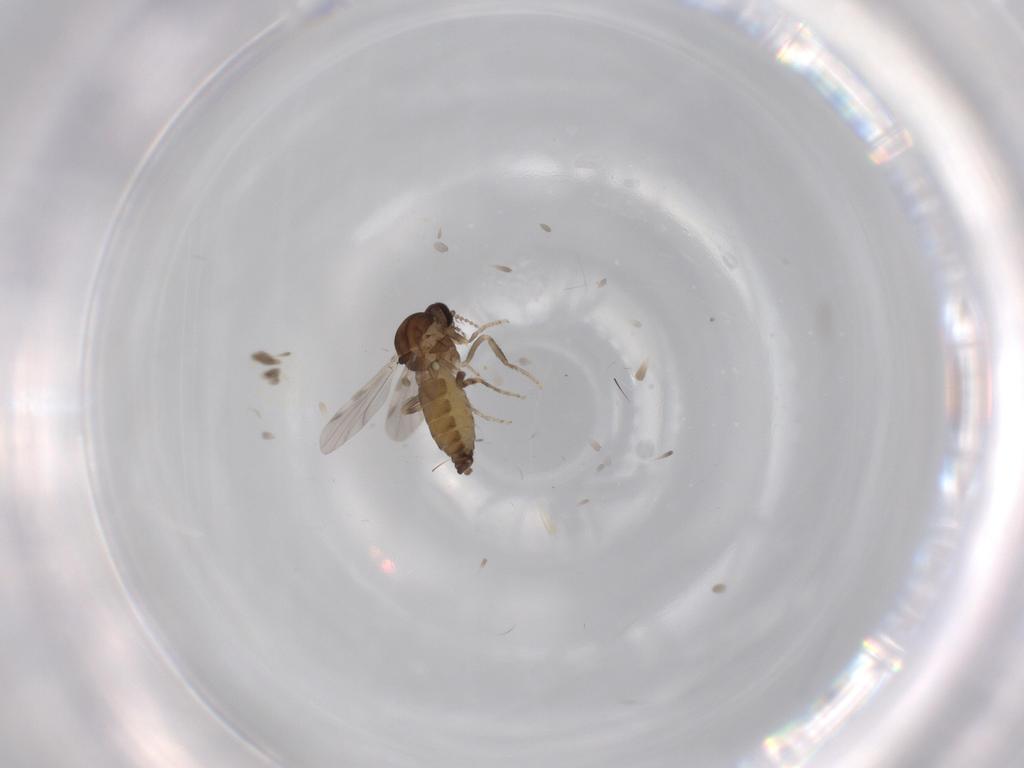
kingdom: Animalia
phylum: Arthropoda
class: Insecta
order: Diptera
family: Ceratopogonidae
